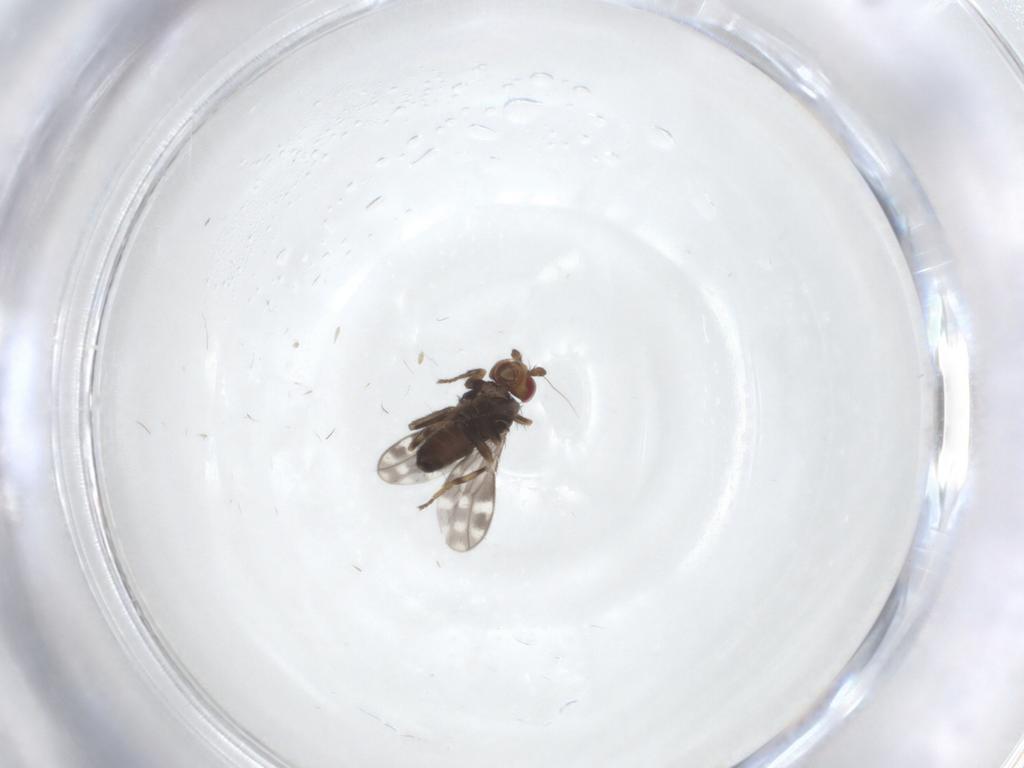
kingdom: Animalia
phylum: Arthropoda
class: Insecta
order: Diptera
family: Sphaeroceridae
